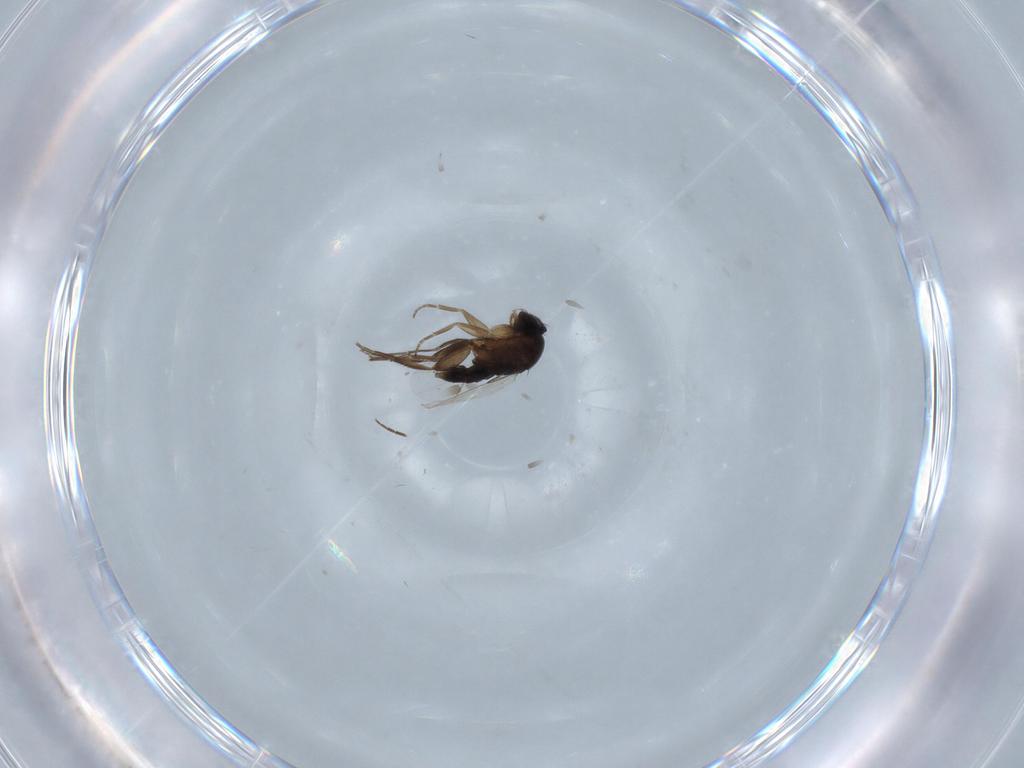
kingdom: Animalia
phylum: Arthropoda
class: Insecta
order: Diptera
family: Phoridae
